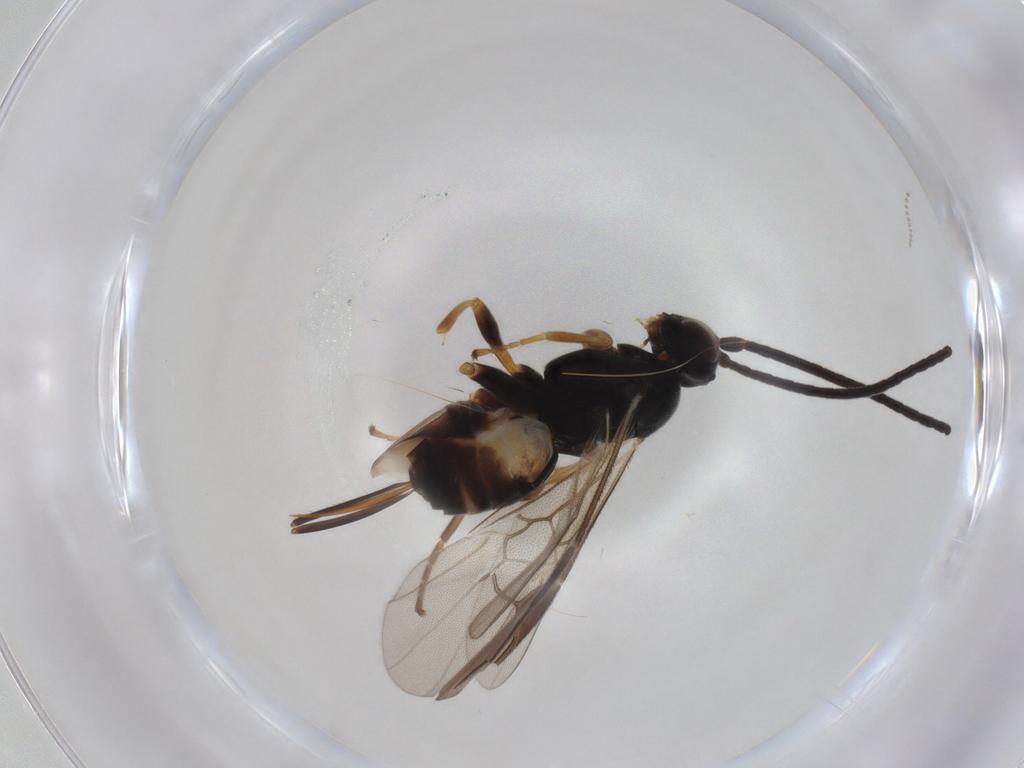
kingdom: Animalia
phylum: Arthropoda
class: Insecta
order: Hymenoptera
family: Braconidae
